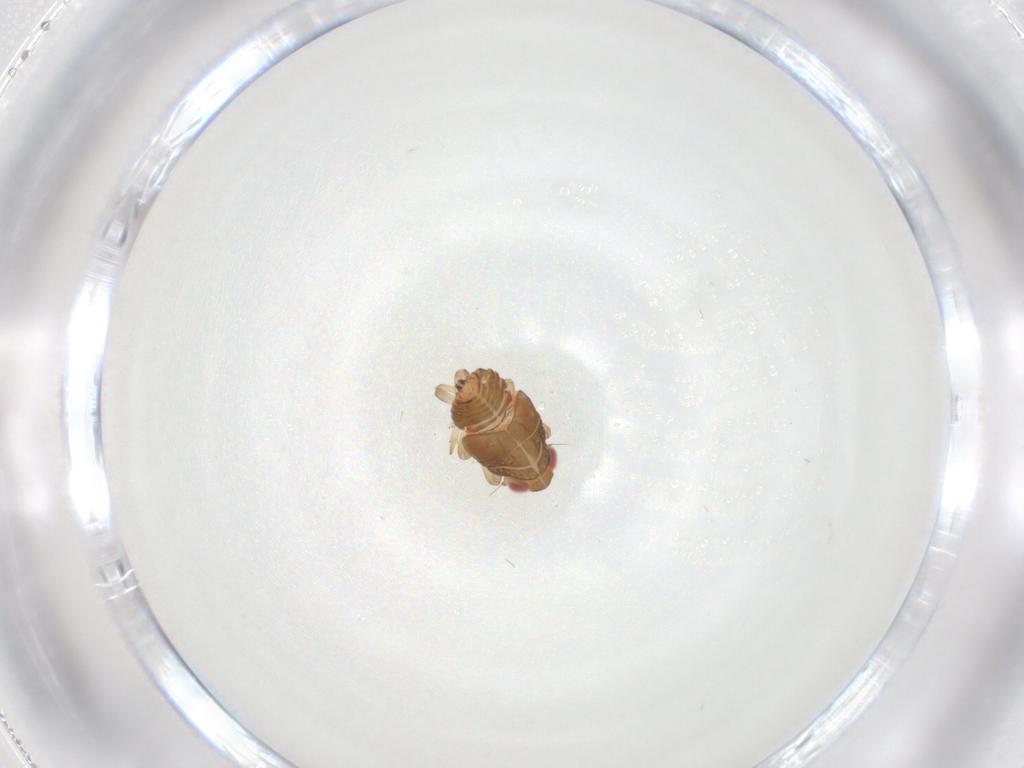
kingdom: Animalia
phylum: Arthropoda
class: Insecta
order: Hemiptera
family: Issidae
